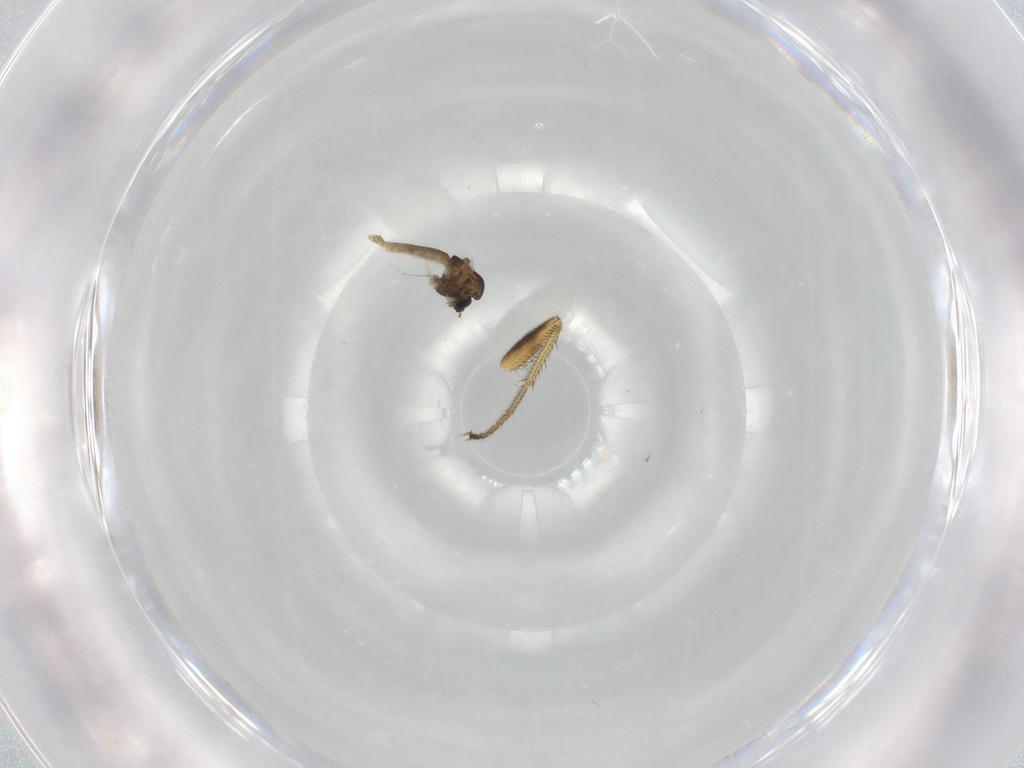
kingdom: Animalia
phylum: Arthropoda
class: Insecta
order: Diptera
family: Chironomidae
